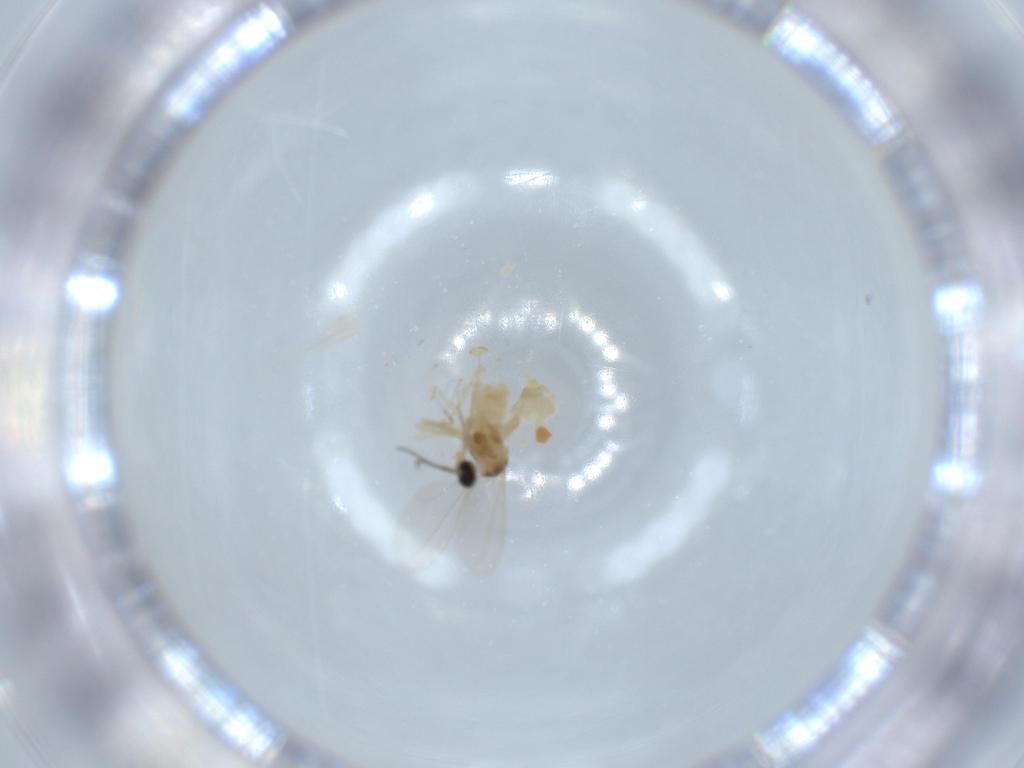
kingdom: Animalia
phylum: Arthropoda
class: Insecta
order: Diptera
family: Cecidomyiidae
